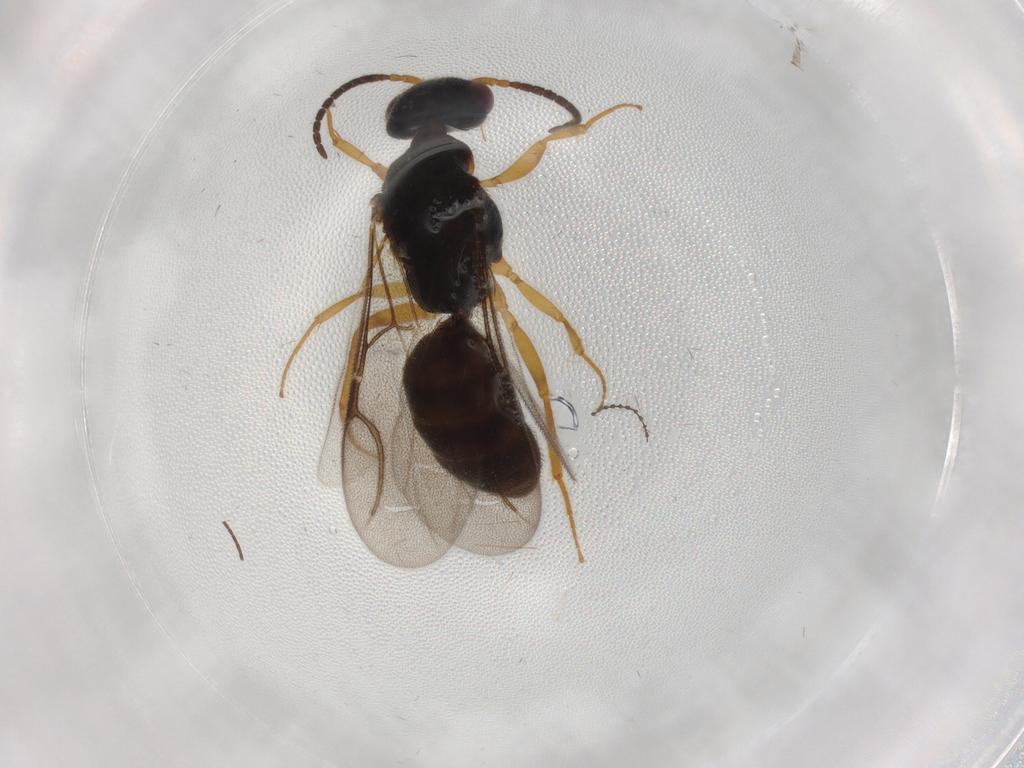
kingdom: Animalia
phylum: Arthropoda
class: Insecta
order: Hymenoptera
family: Bethylidae
